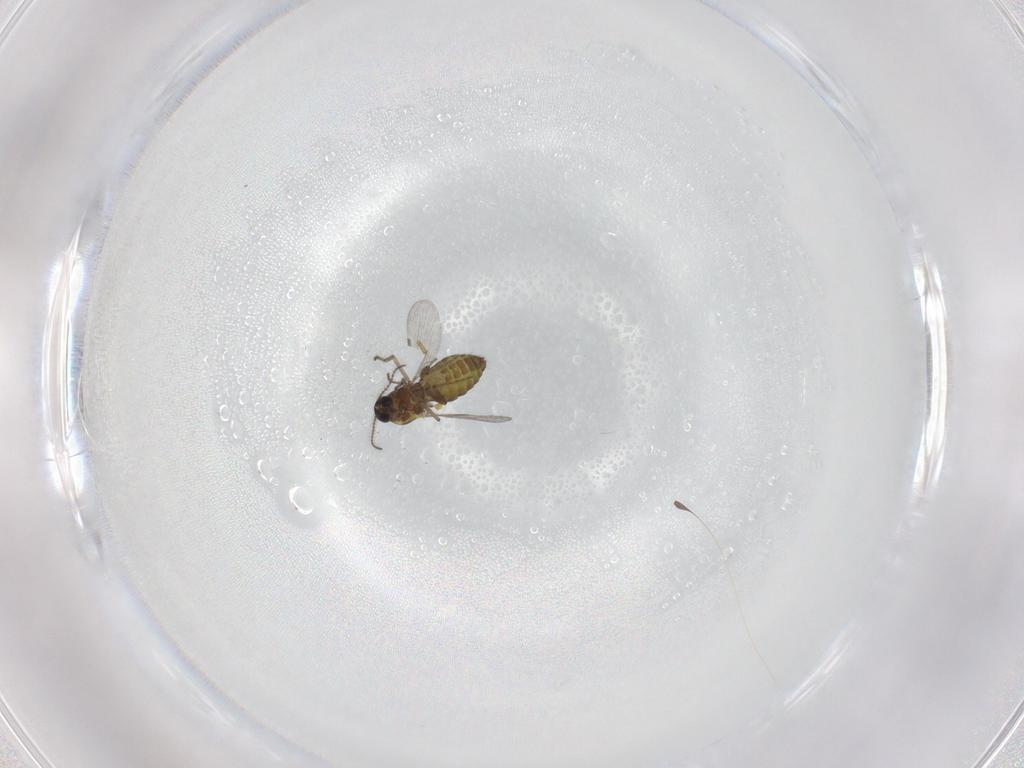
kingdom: Animalia
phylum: Arthropoda
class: Insecta
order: Diptera
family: Ceratopogonidae
